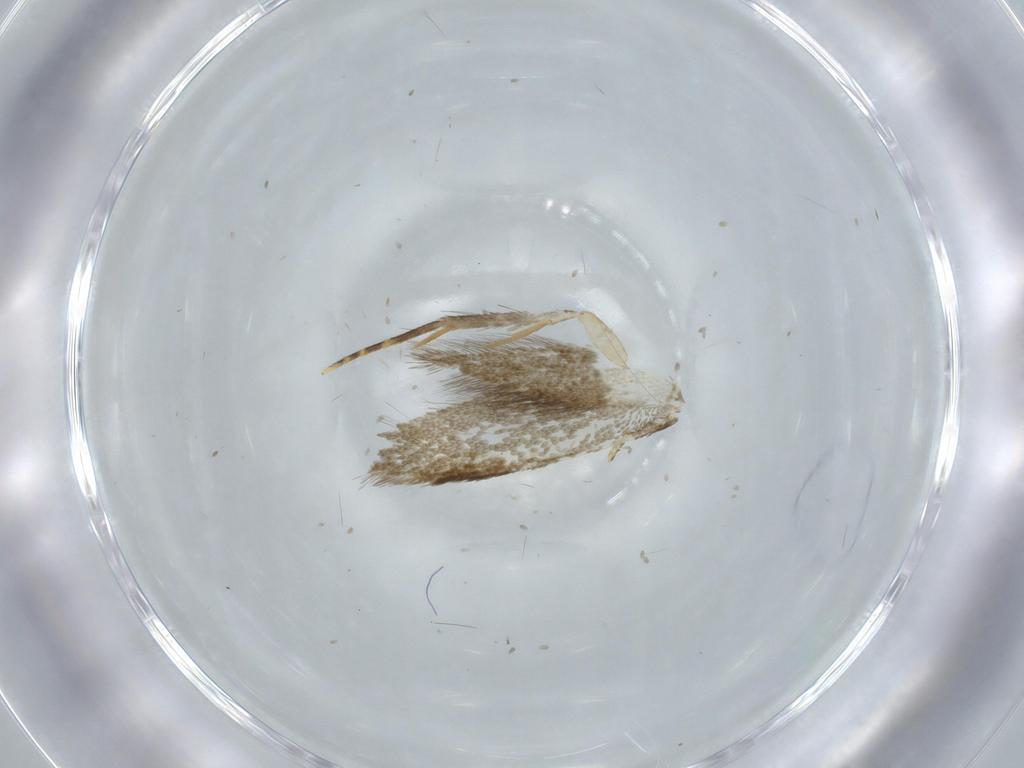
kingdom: Animalia
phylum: Arthropoda
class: Insecta
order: Lepidoptera
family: Tineidae
